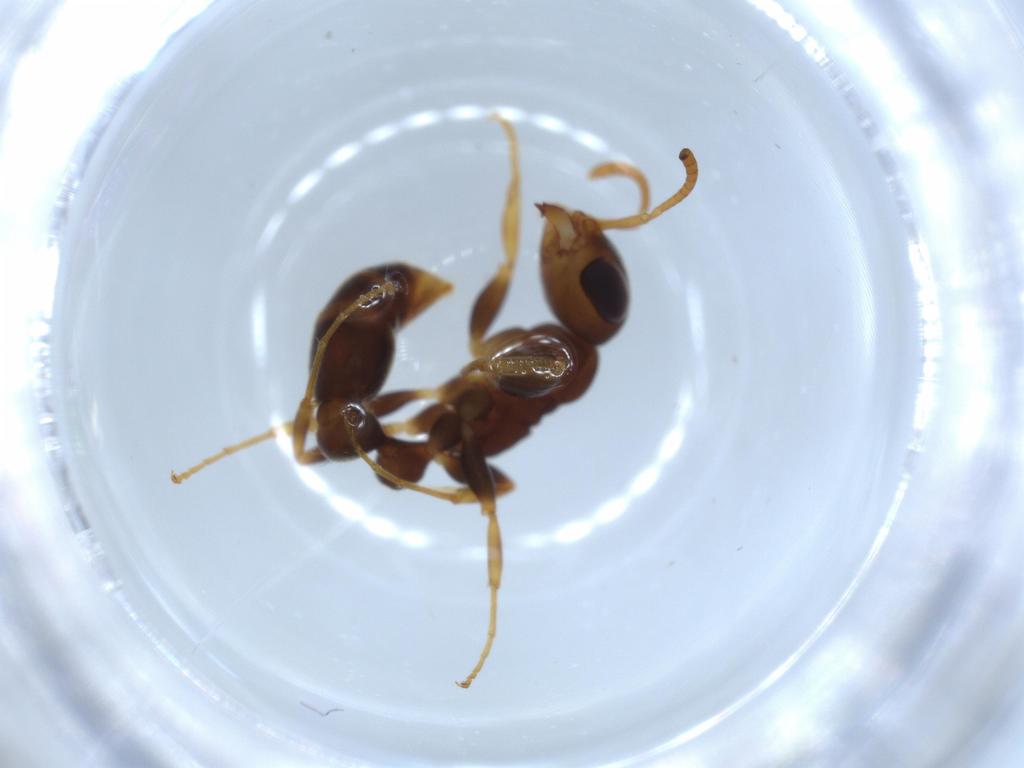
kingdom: Animalia
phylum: Arthropoda
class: Insecta
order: Hymenoptera
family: Formicidae
